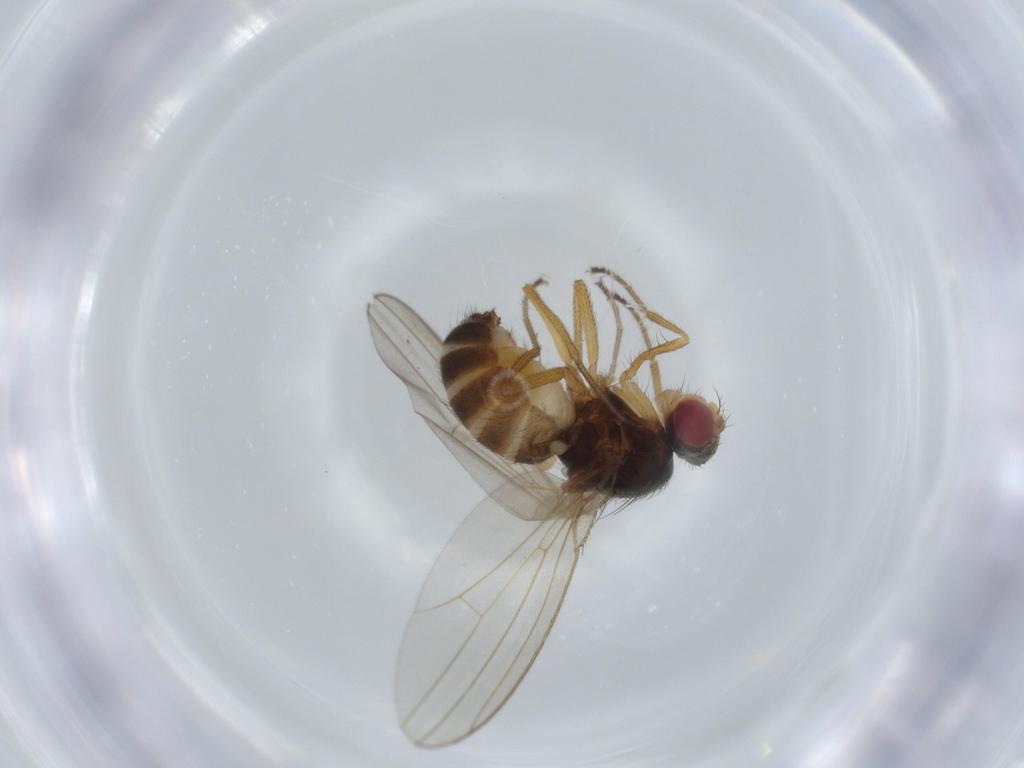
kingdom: Animalia
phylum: Arthropoda
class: Insecta
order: Diptera
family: Drosophilidae
